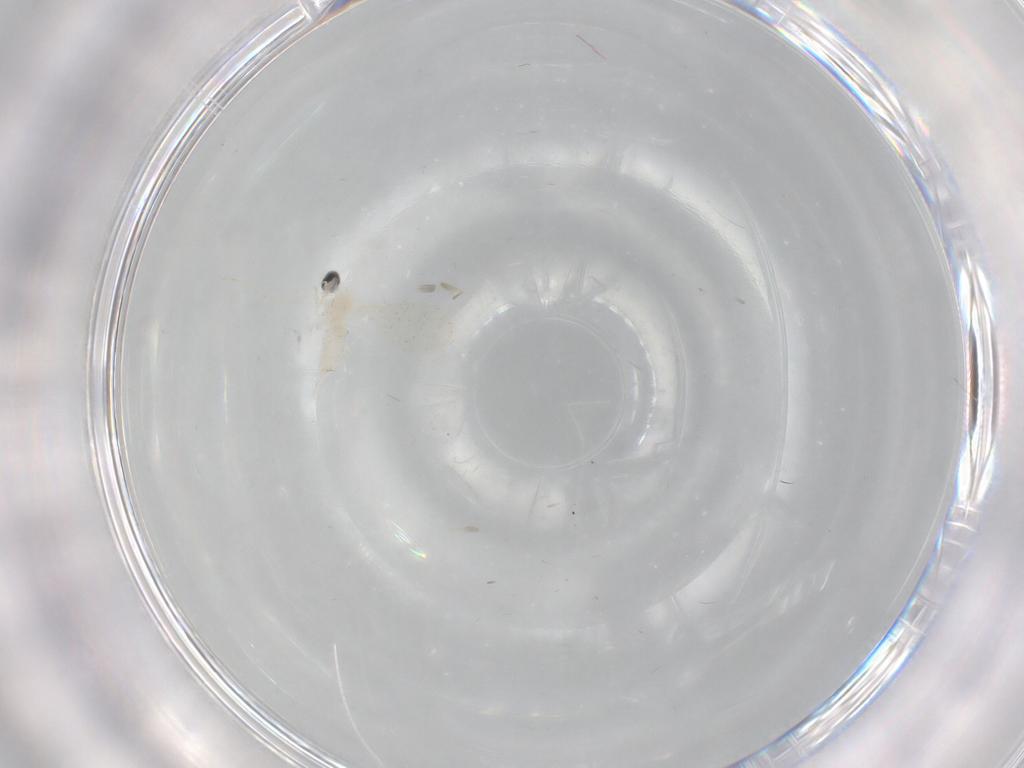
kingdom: Animalia
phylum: Arthropoda
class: Insecta
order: Diptera
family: Cecidomyiidae
